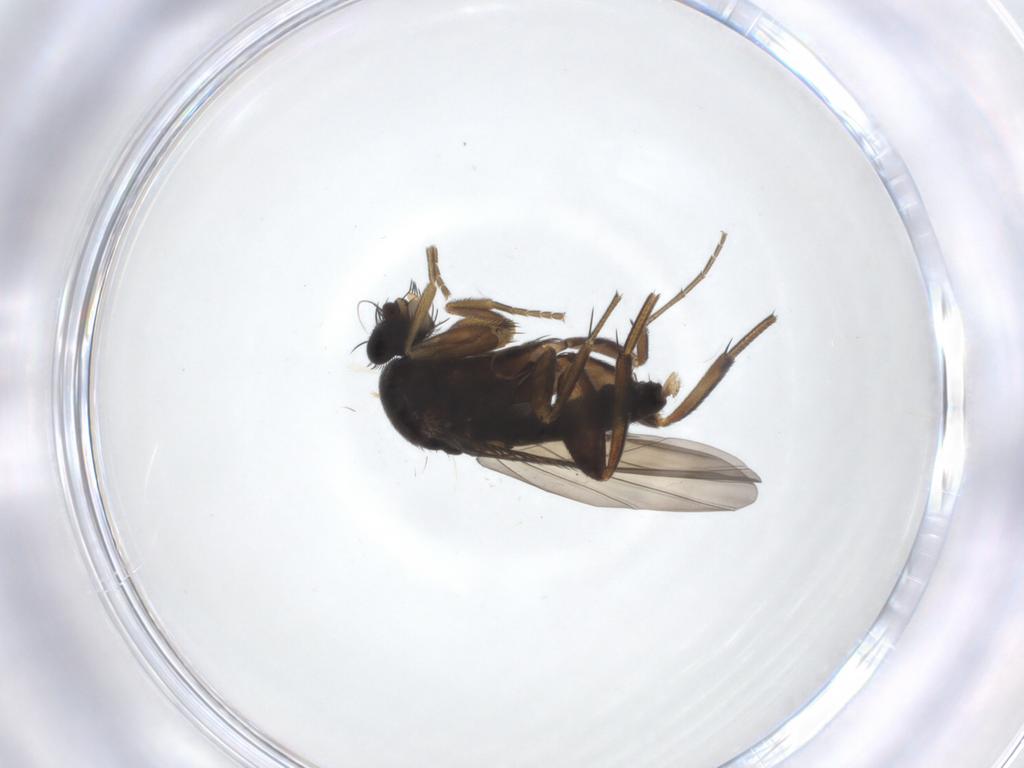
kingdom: Animalia
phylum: Arthropoda
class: Insecta
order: Diptera
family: Phoridae
